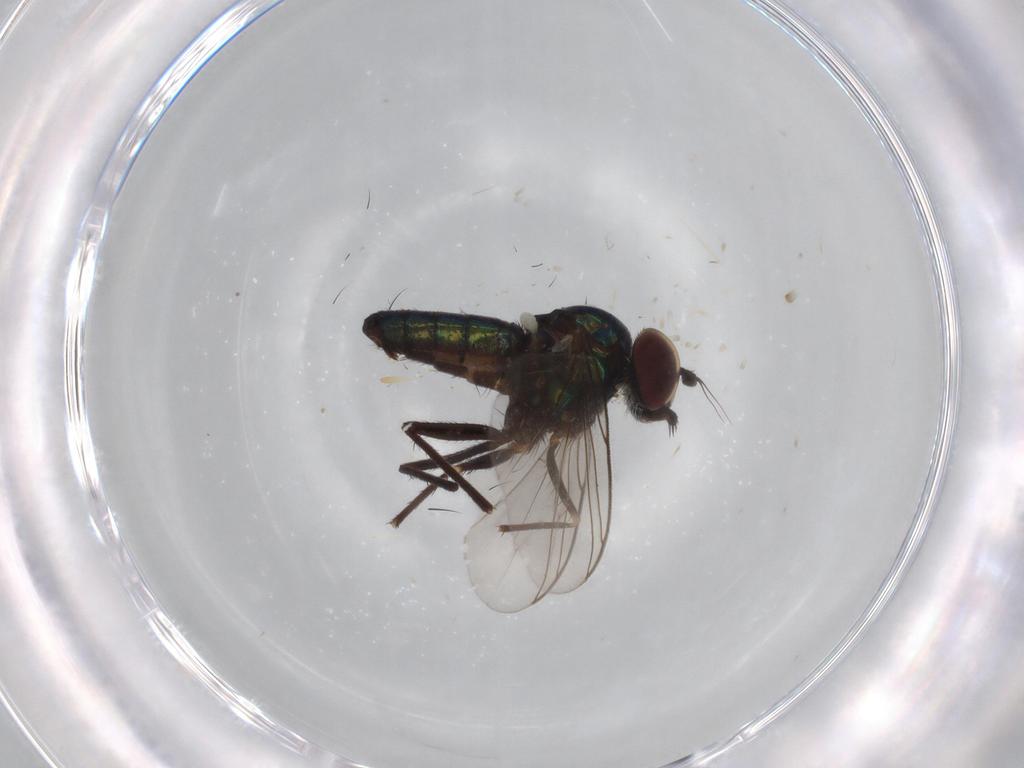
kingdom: Animalia
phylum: Arthropoda
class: Insecta
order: Diptera
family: Dolichopodidae
